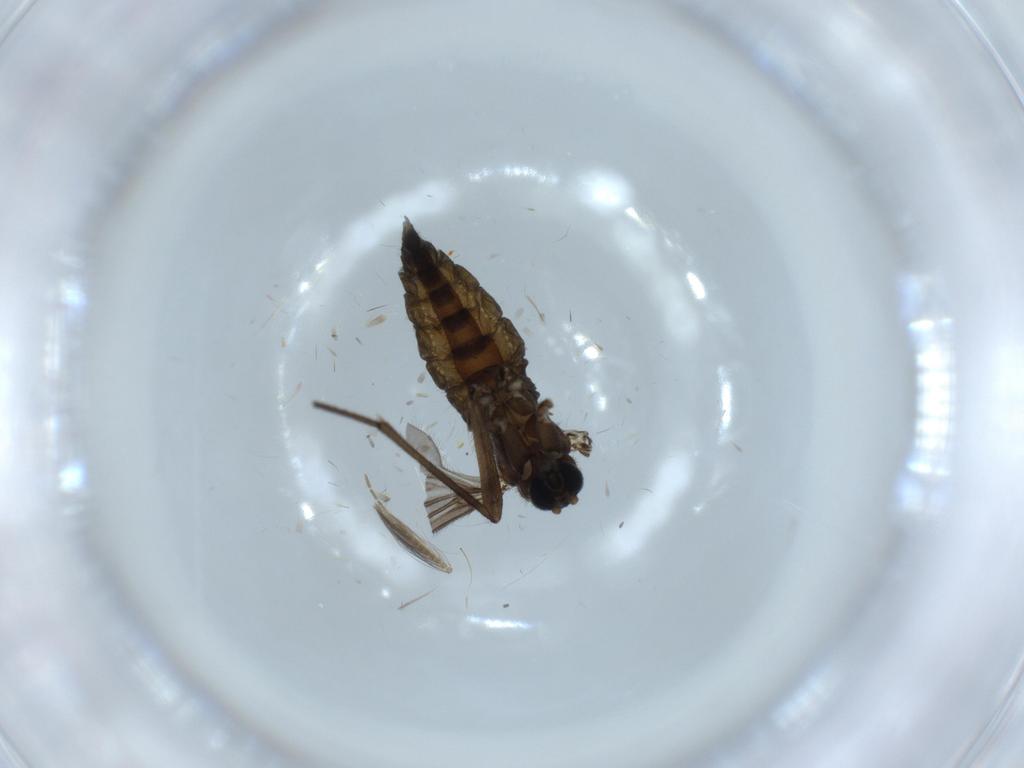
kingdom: Animalia
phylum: Arthropoda
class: Insecta
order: Diptera
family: Sciaridae
